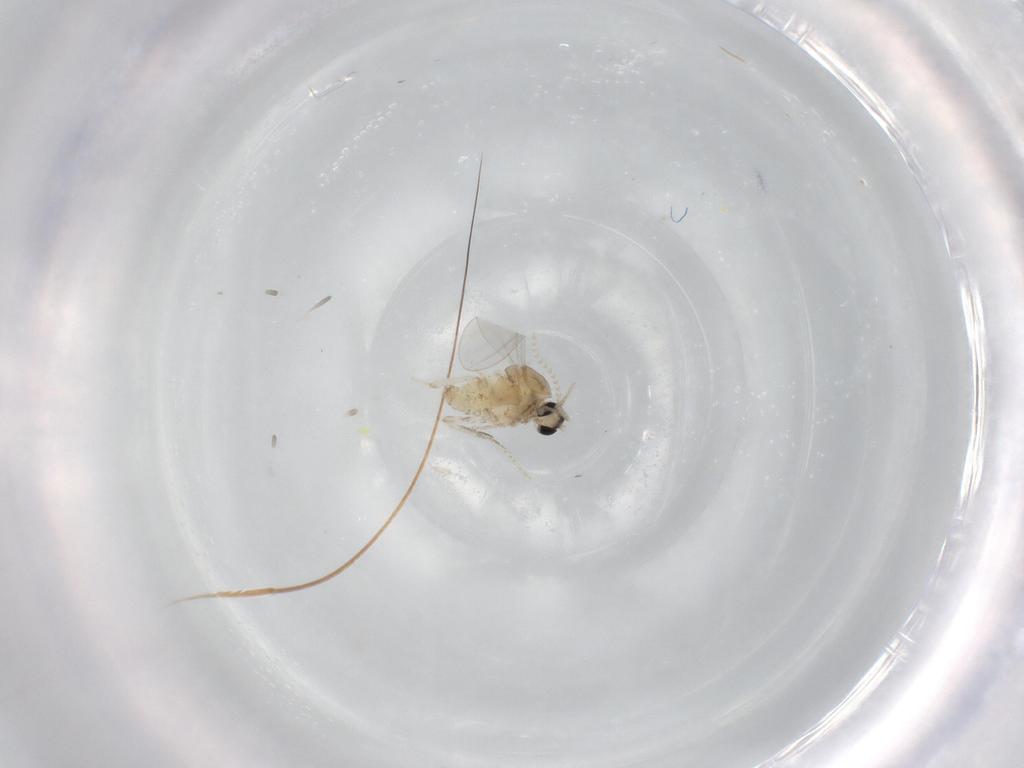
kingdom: Animalia
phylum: Arthropoda
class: Insecta
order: Diptera
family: Cecidomyiidae
